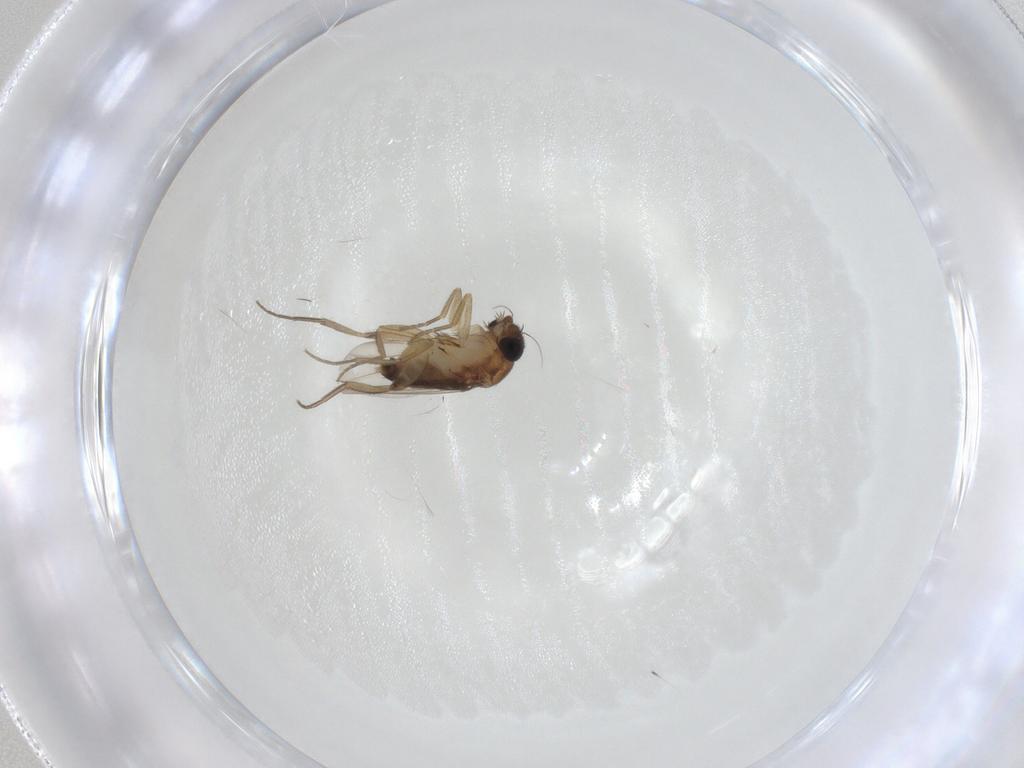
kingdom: Animalia
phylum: Arthropoda
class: Insecta
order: Diptera
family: Phoridae
